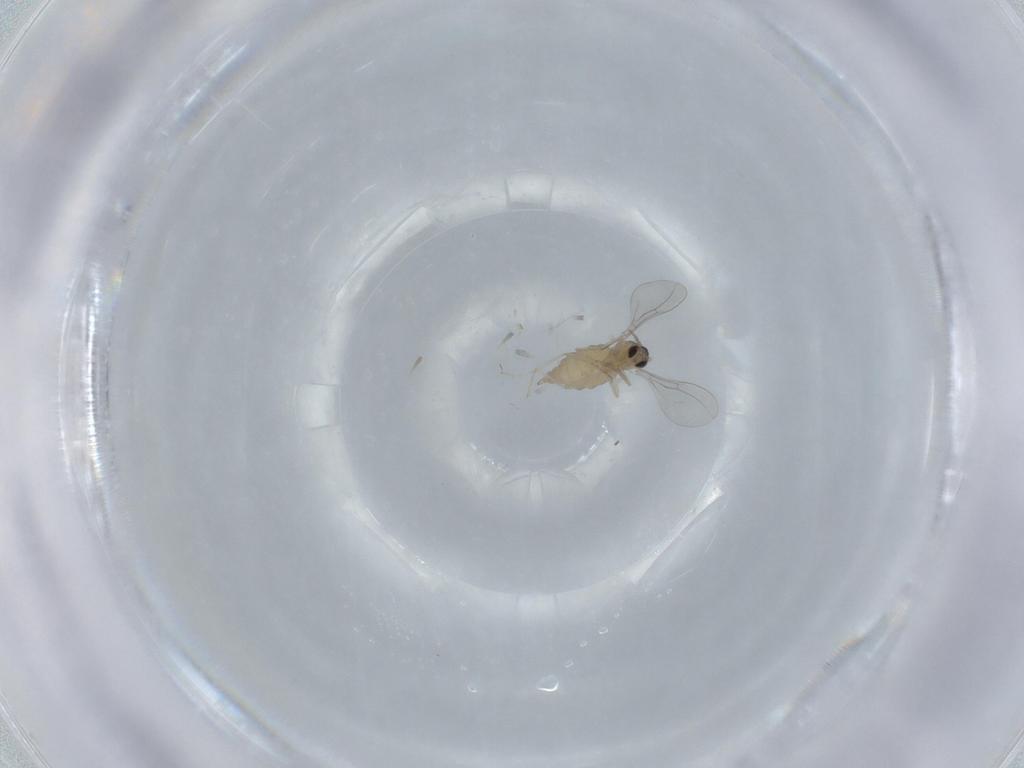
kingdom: Animalia
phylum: Arthropoda
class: Insecta
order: Diptera
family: Cecidomyiidae
